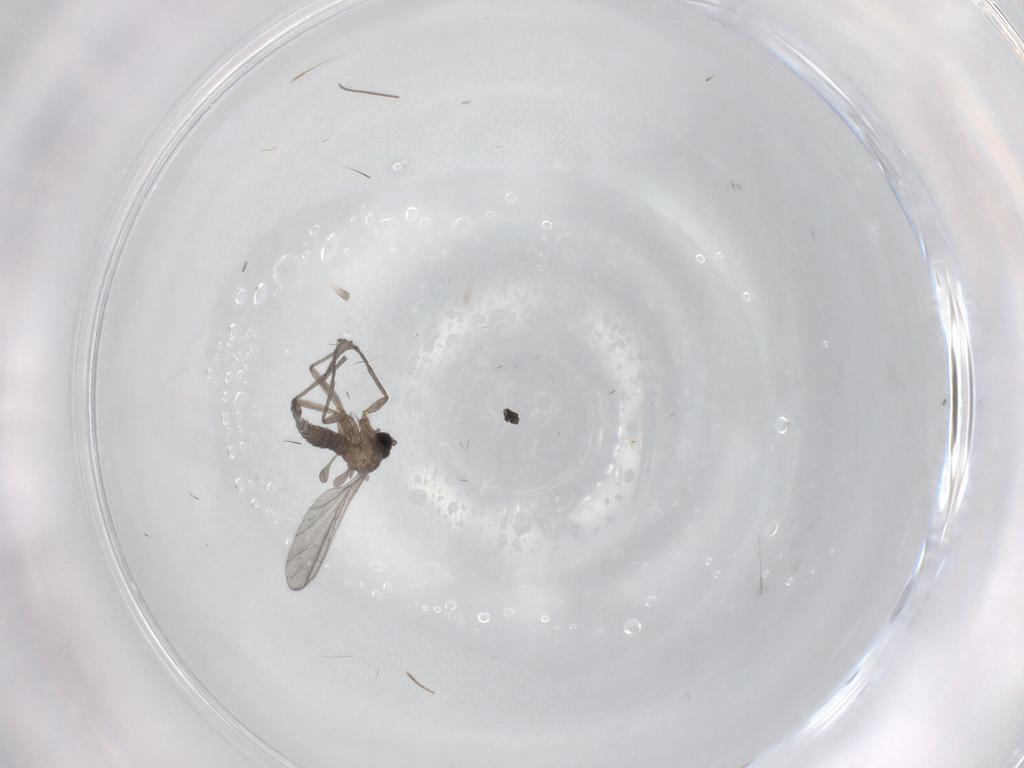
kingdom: Animalia
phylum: Arthropoda
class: Insecta
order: Diptera
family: Sciaridae
